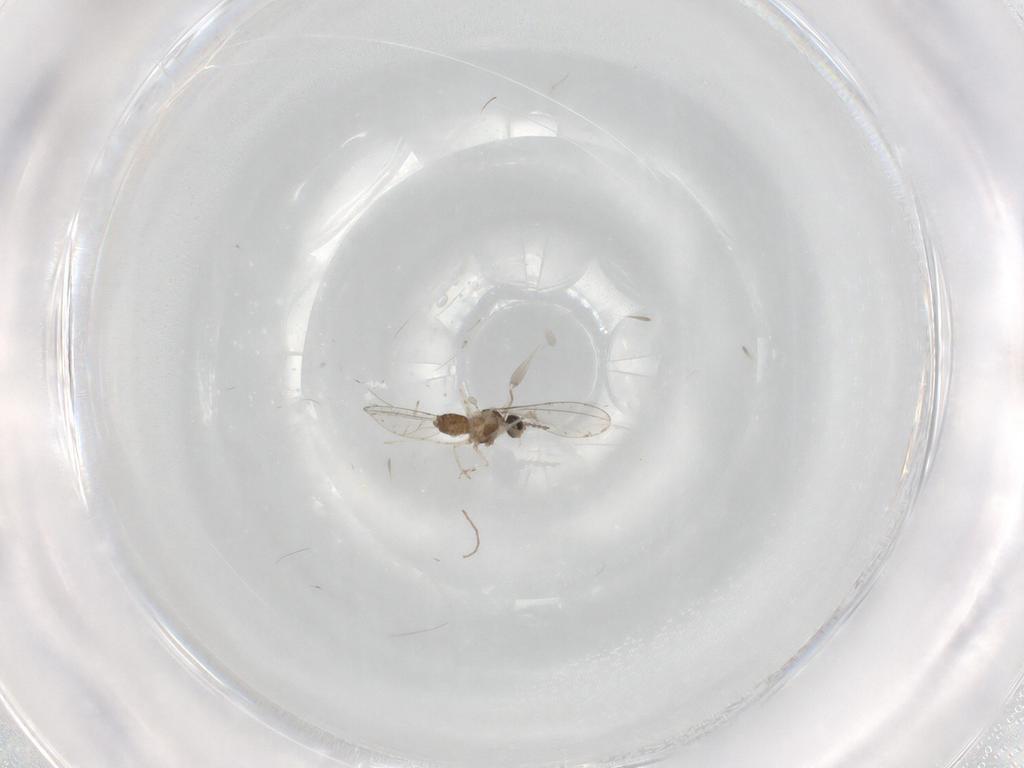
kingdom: Animalia
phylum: Arthropoda
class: Insecta
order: Diptera
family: Cecidomyiidae
